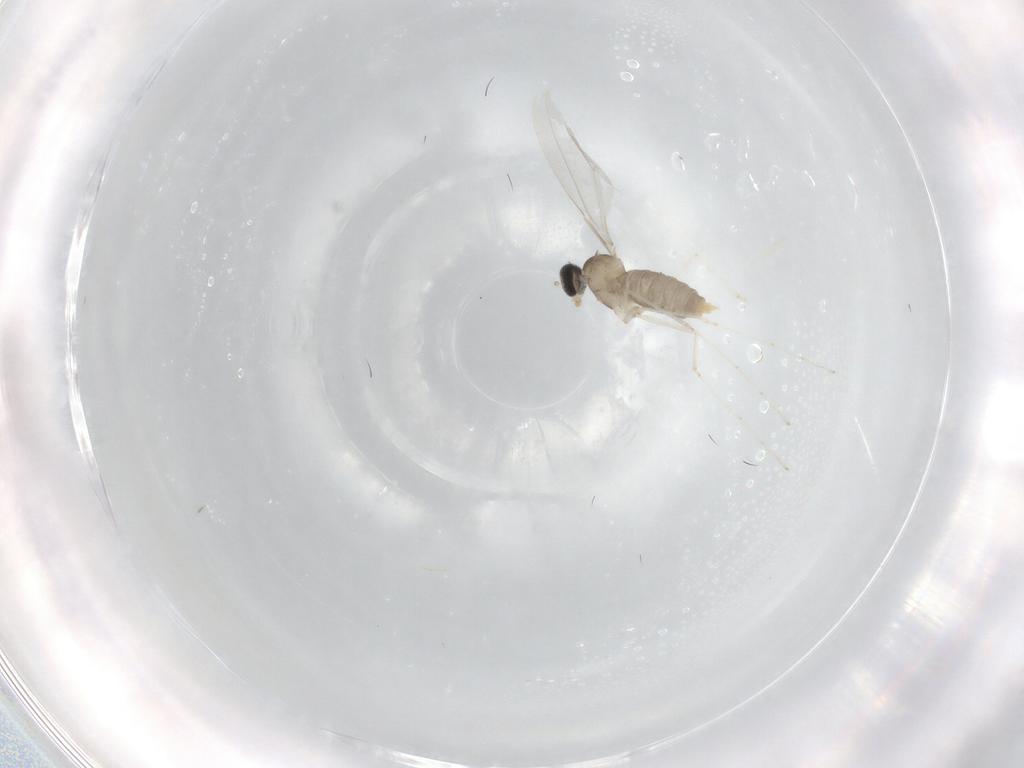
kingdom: Animalia
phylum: Arthropoda
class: Insecta
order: Diptera
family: Cecidomyiidae
